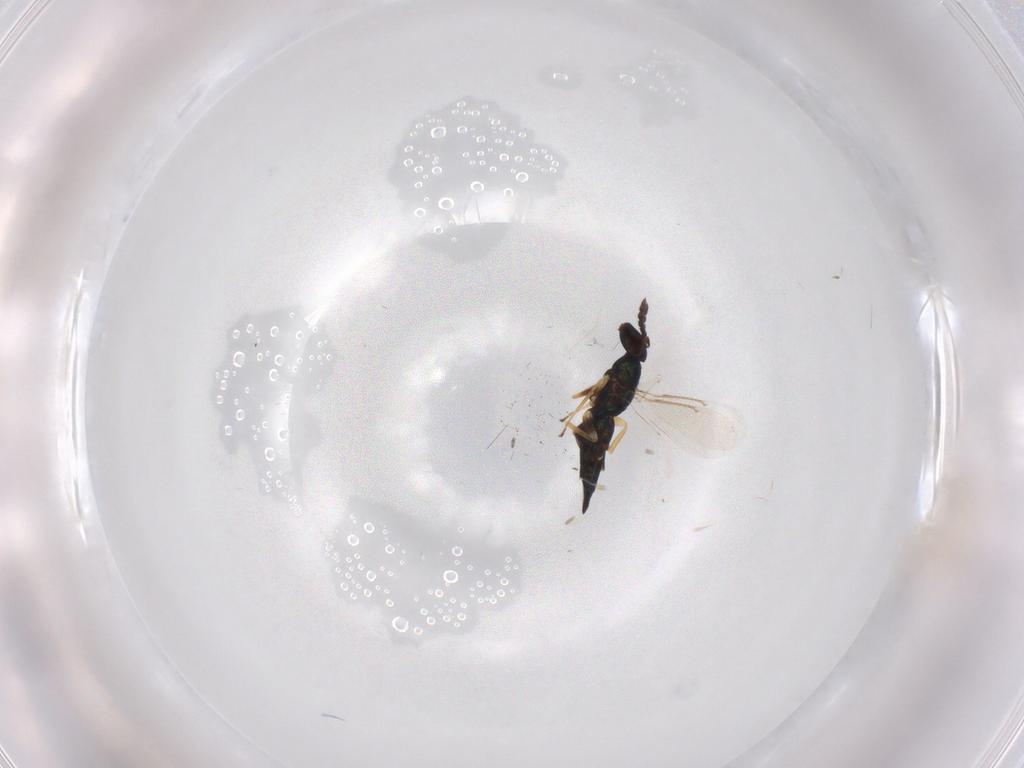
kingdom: Animalia
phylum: Arthropoda
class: Insecta
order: Hymenoptera
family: Eulophidae
